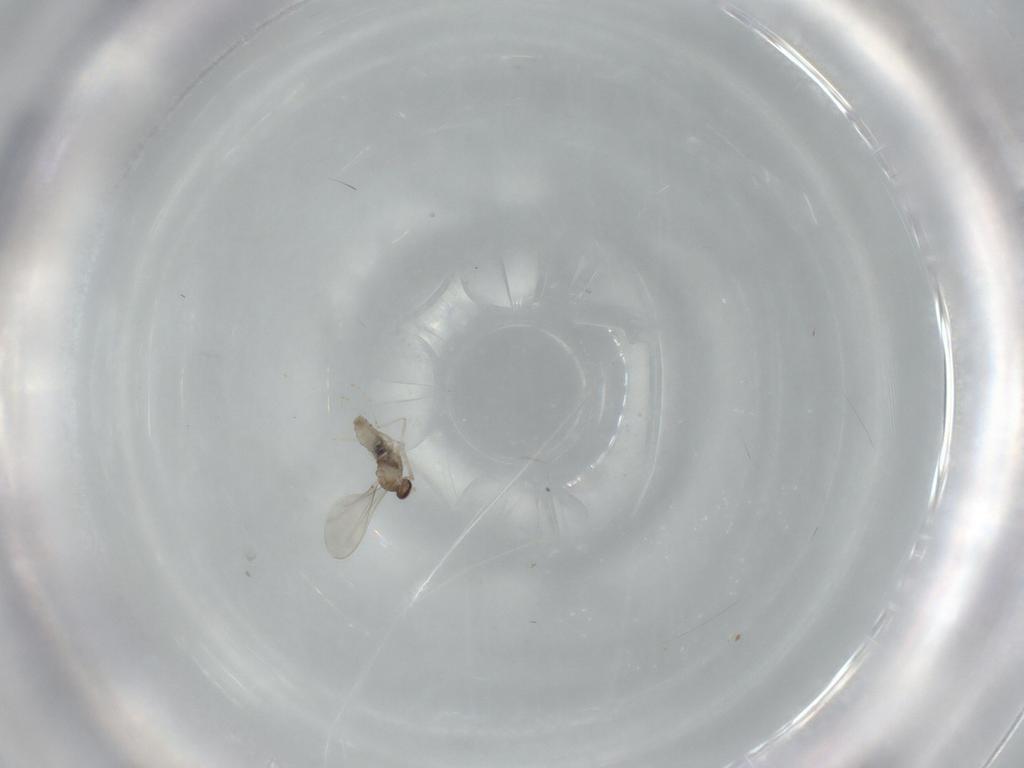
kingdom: Animalia
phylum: Arthropoda
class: Insecta
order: Diptera
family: Cecidomyiidae
